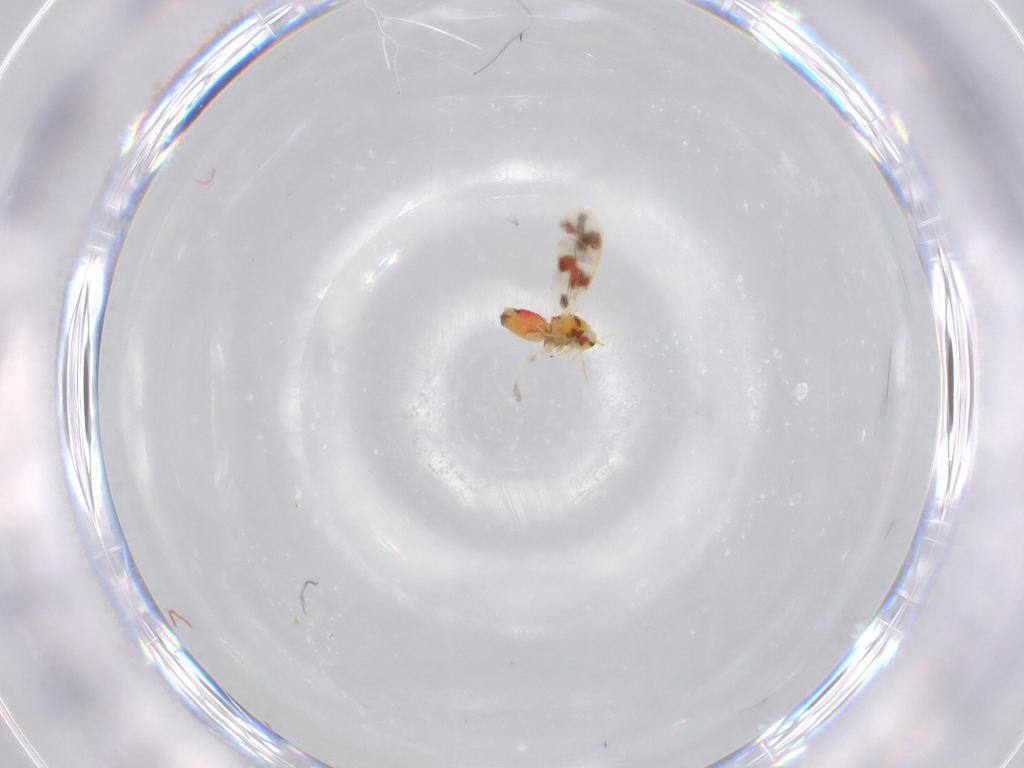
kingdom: Animalia
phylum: Arthropoda
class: Insecta
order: Hemiptera
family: Aleyrodidae
